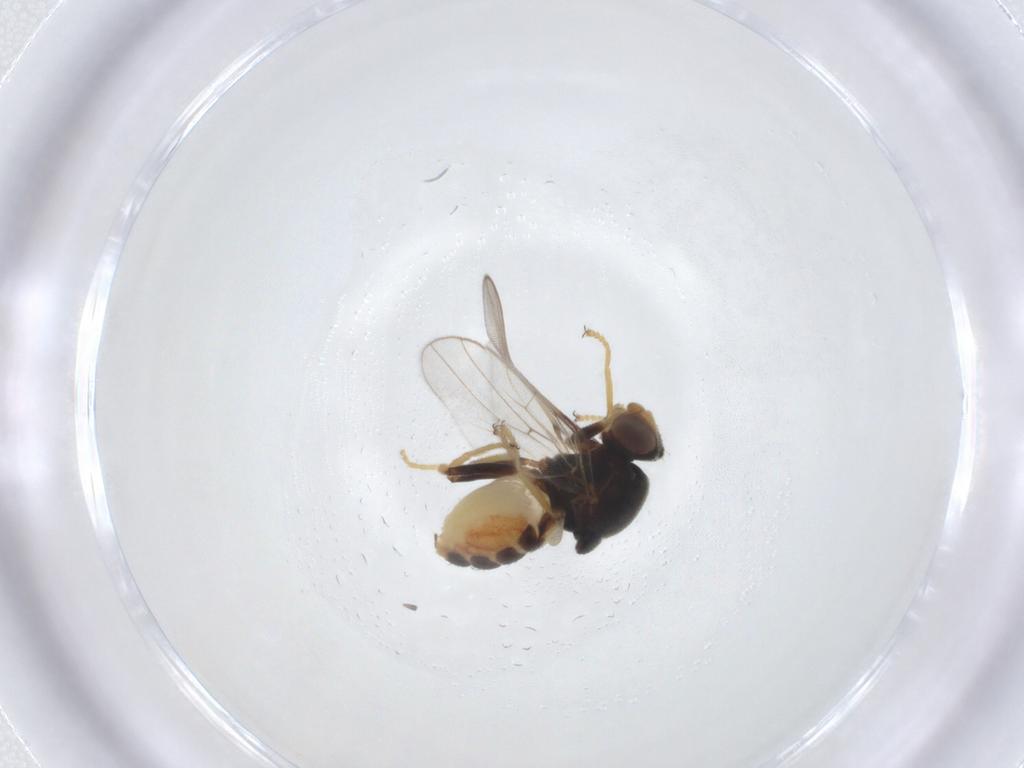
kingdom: Animalia
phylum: Arthropoda
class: Insecta
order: Diptera
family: Chloropidae
